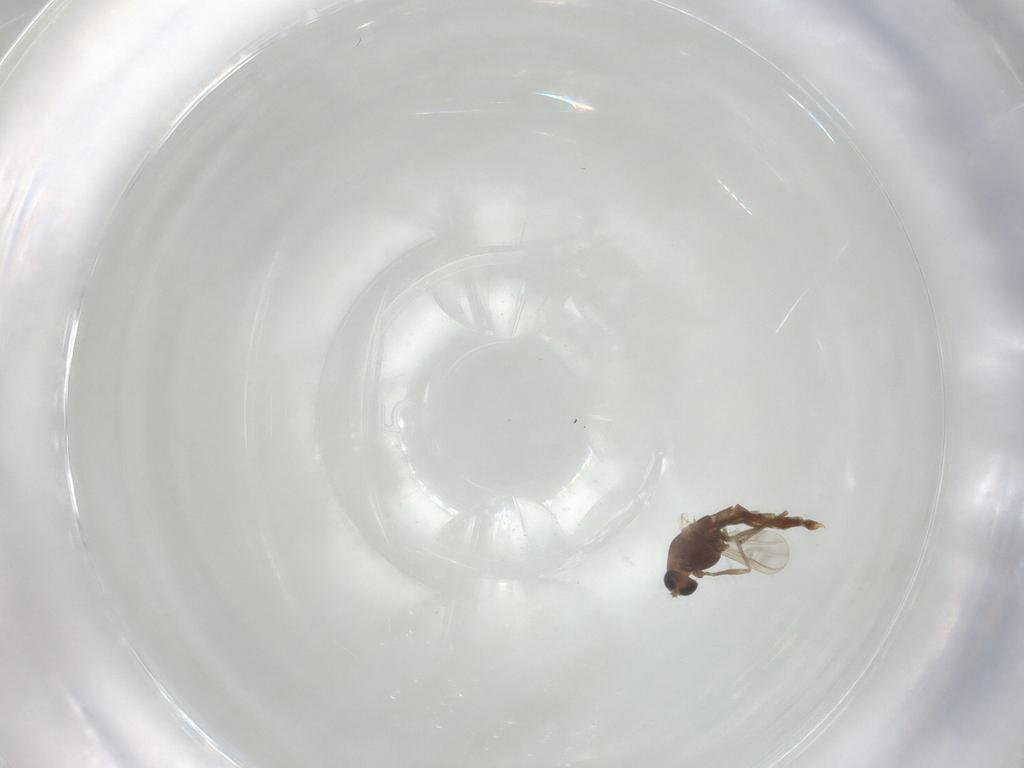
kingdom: Animalia
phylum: Arthropoda
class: Insecta
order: Diptera
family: Chironomidae
